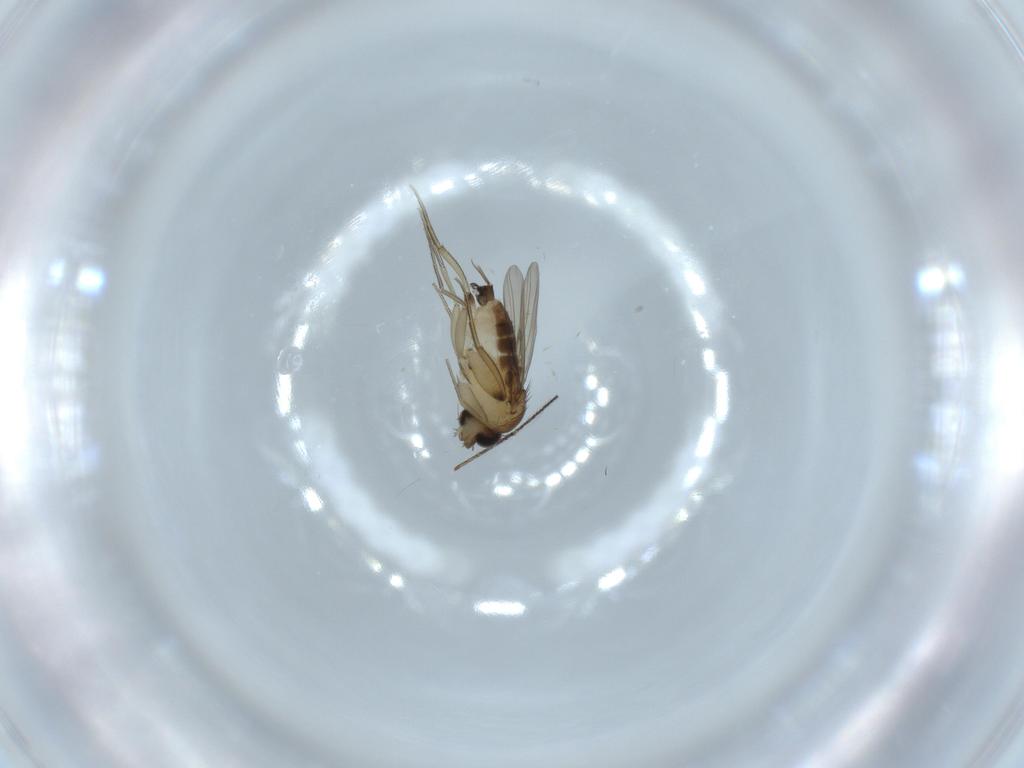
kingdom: Animalia
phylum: Arthropoda
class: Insecta
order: Diptera
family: Phoridae
